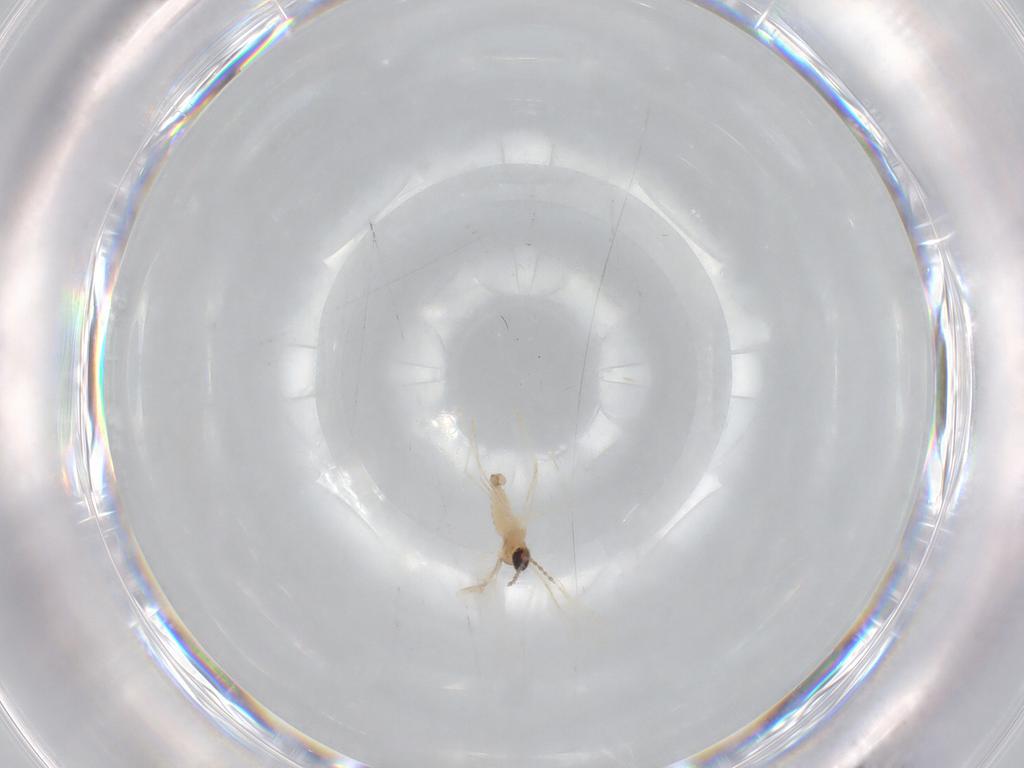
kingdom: Animalia
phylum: Arthropoda
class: Insecta
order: Diptera
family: Cecidomyiidae
